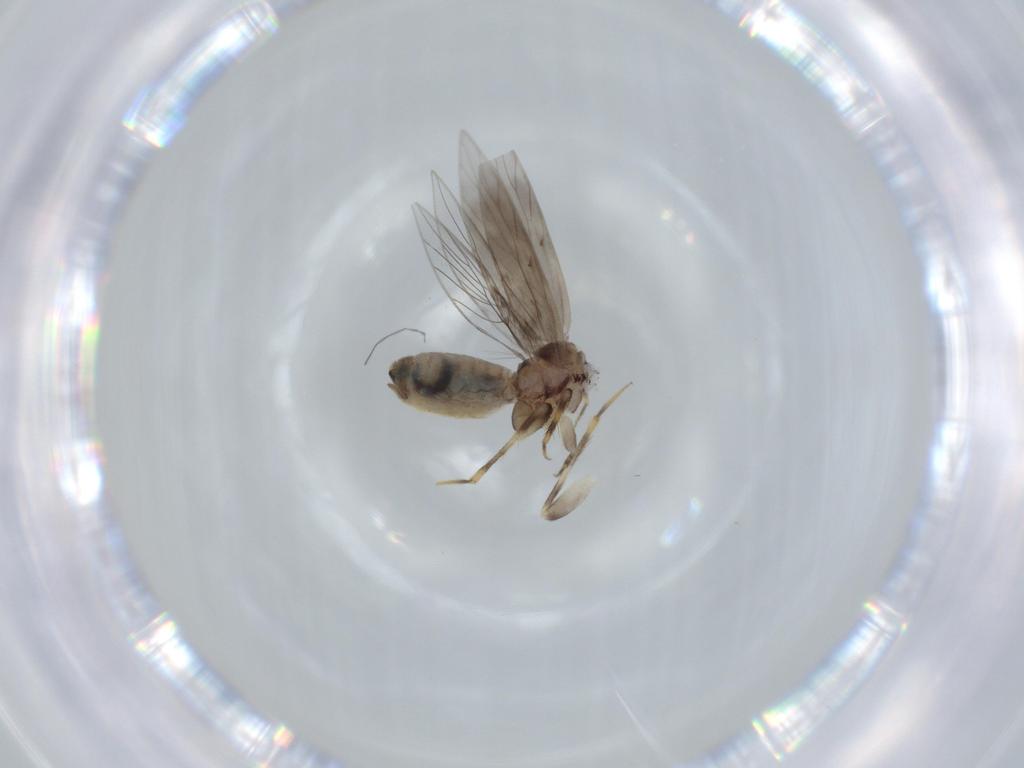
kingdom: Animalia
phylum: Arthropoda
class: Insecta
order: Psocodea
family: Lepidopsocidae
